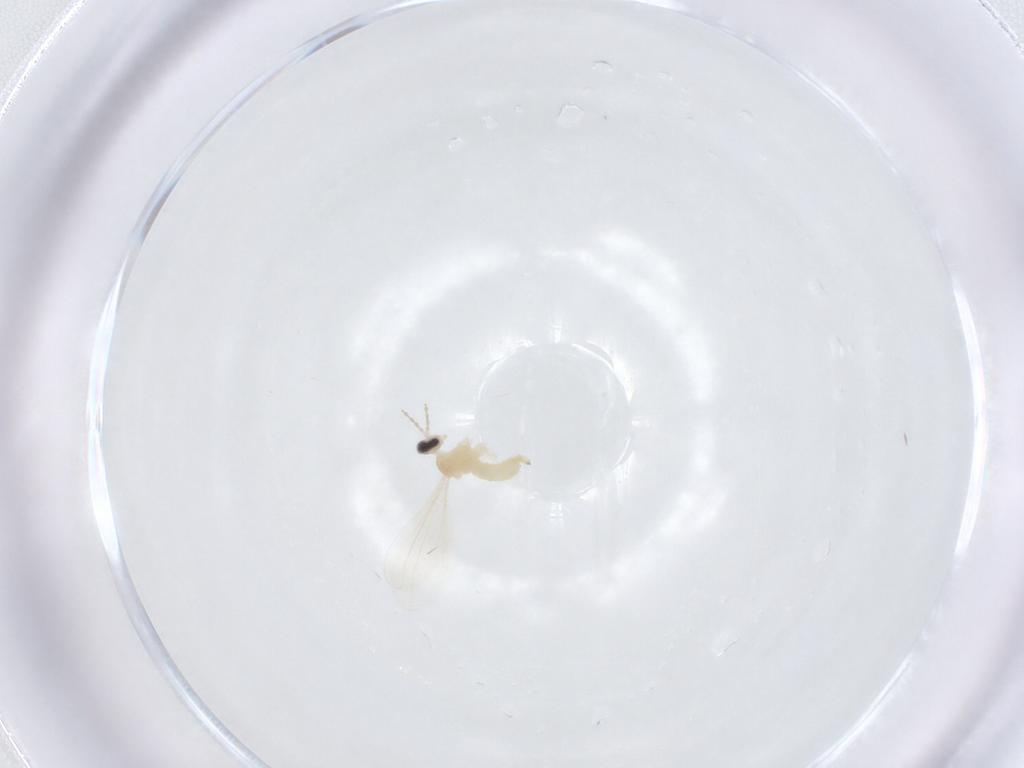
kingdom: Animalia
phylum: Arthropoda
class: Insecta
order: Diptera
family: Cecidomyiidae
